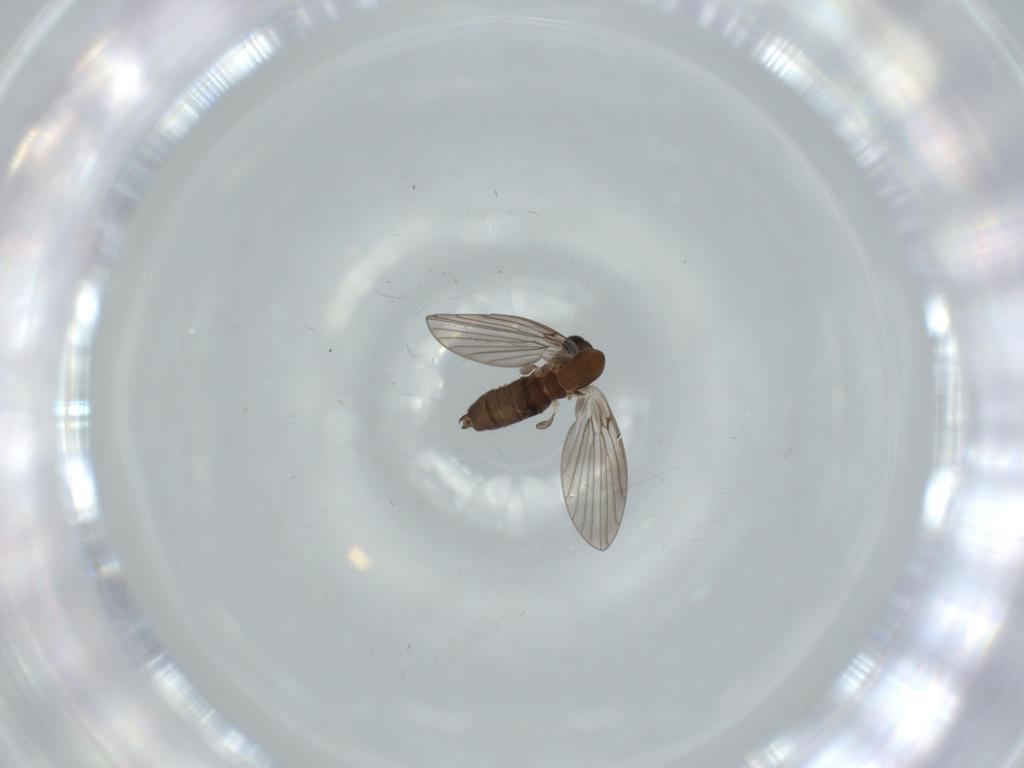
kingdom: Animalia
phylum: Arthropoda
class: Insecta
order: Diptera
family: Psychodidae
